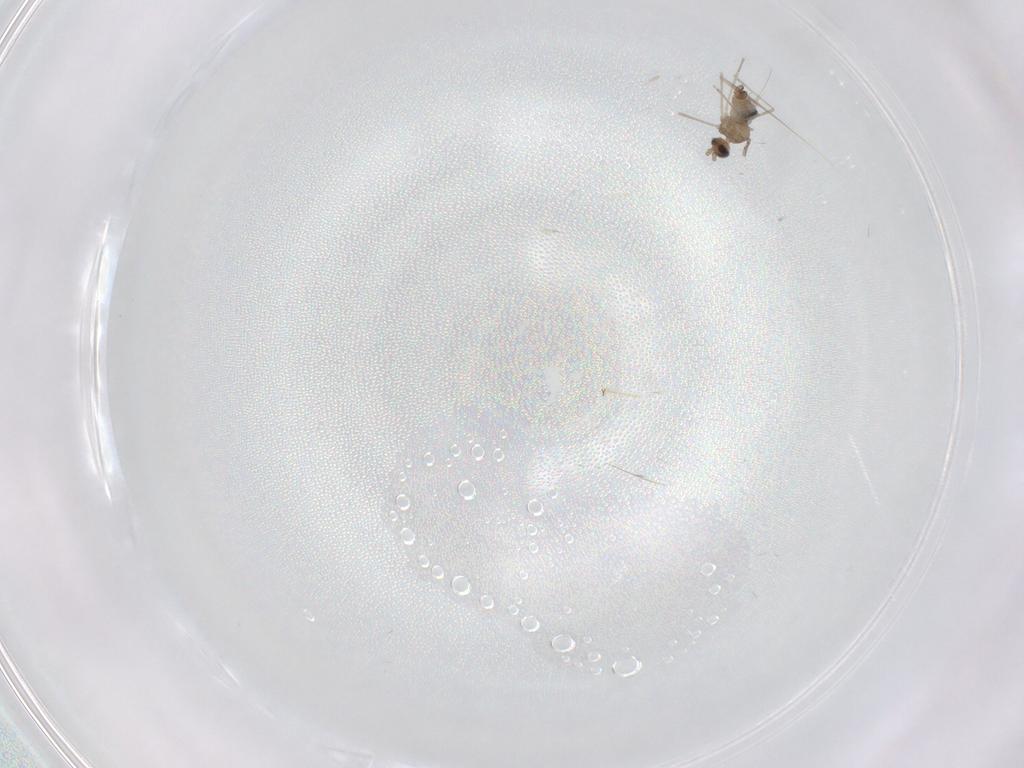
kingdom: Animalia
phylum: Arthropoda
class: Insecta
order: Diptera
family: Cecidomyiidae
